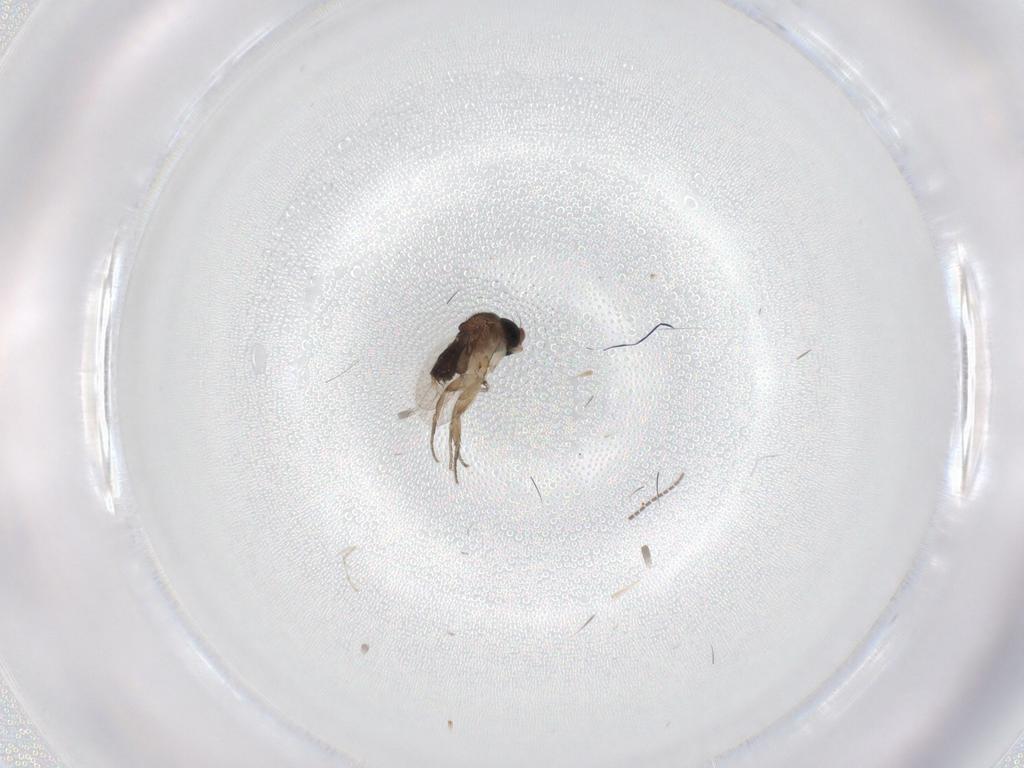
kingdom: Animalia
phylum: Arthropoda
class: Insecta
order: Diptera
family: Phoridae
